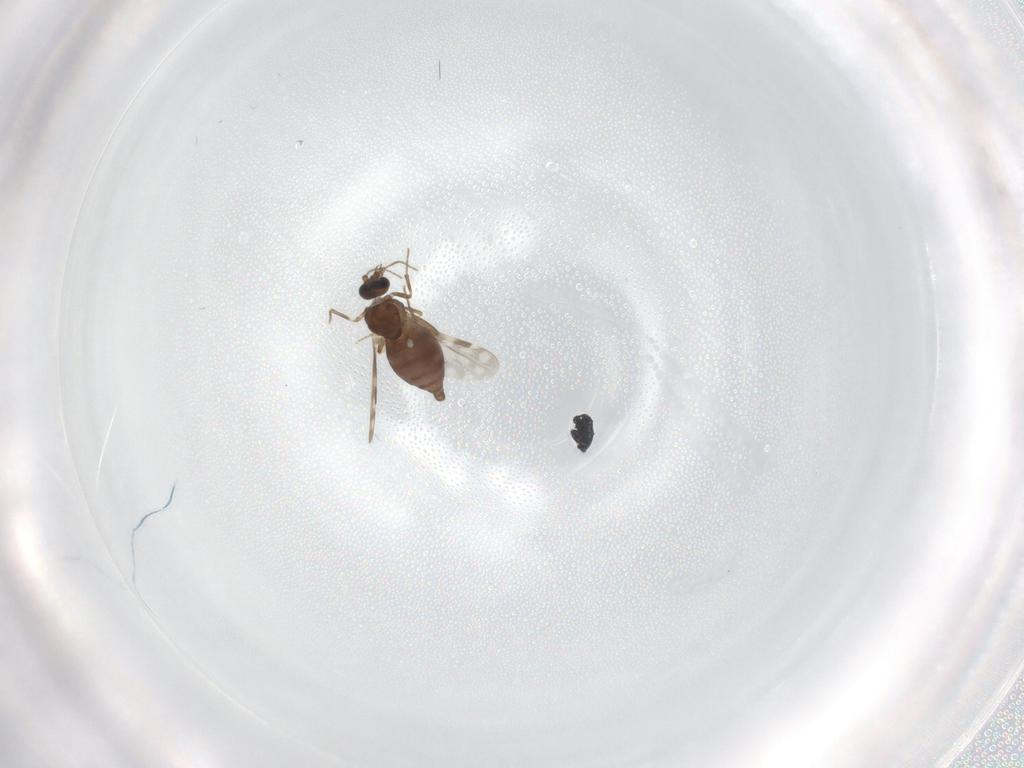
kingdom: Animalia
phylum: Arthropoda
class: Insecta
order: Diptera
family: Ceratopogonidae
